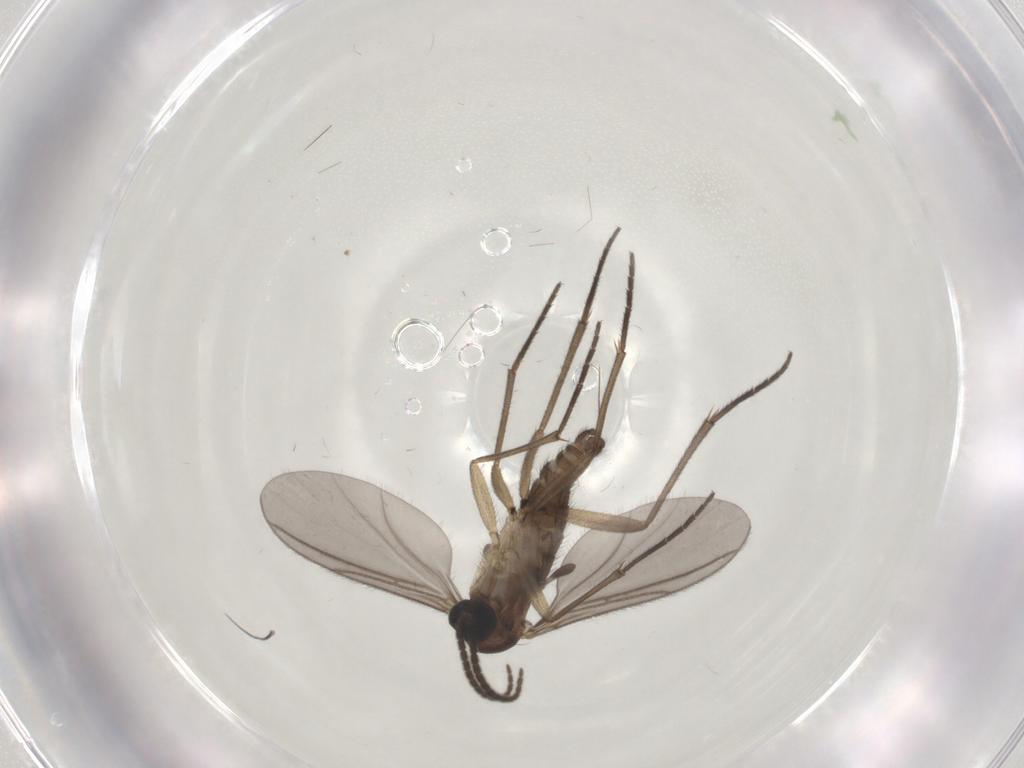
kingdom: Animalia
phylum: Arthropoda
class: Insecta
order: Diptera
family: Sciaridae
